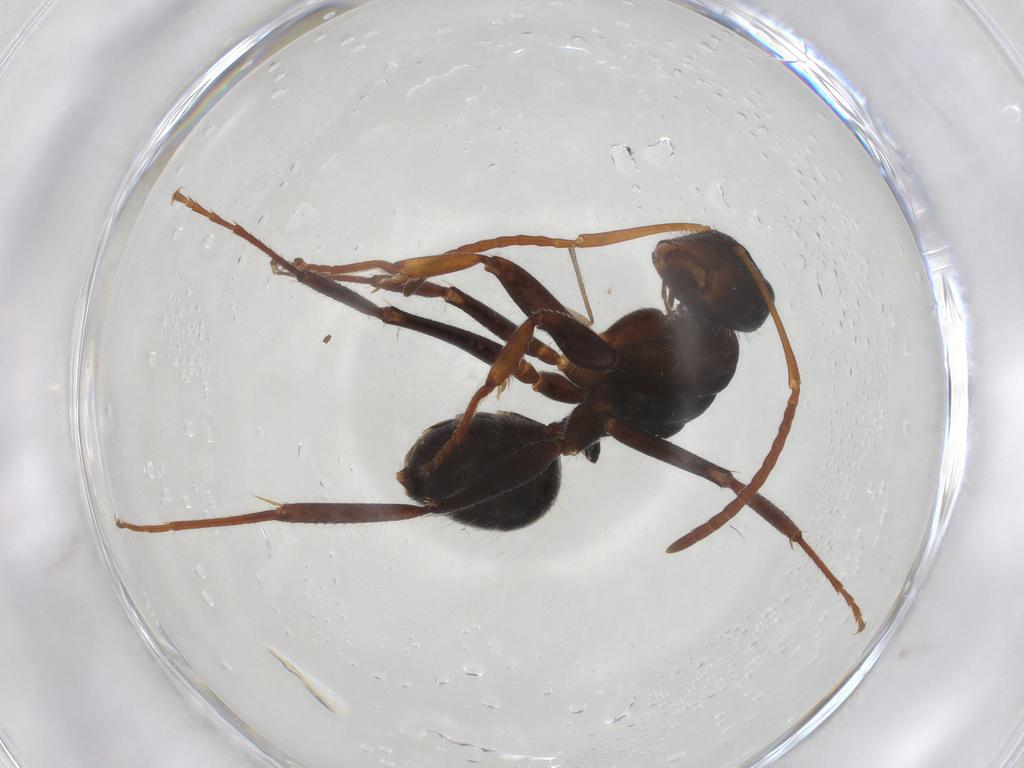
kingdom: Animalia
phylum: Arthropoda
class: Insecta
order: Hymenoptera
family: Formicidae
